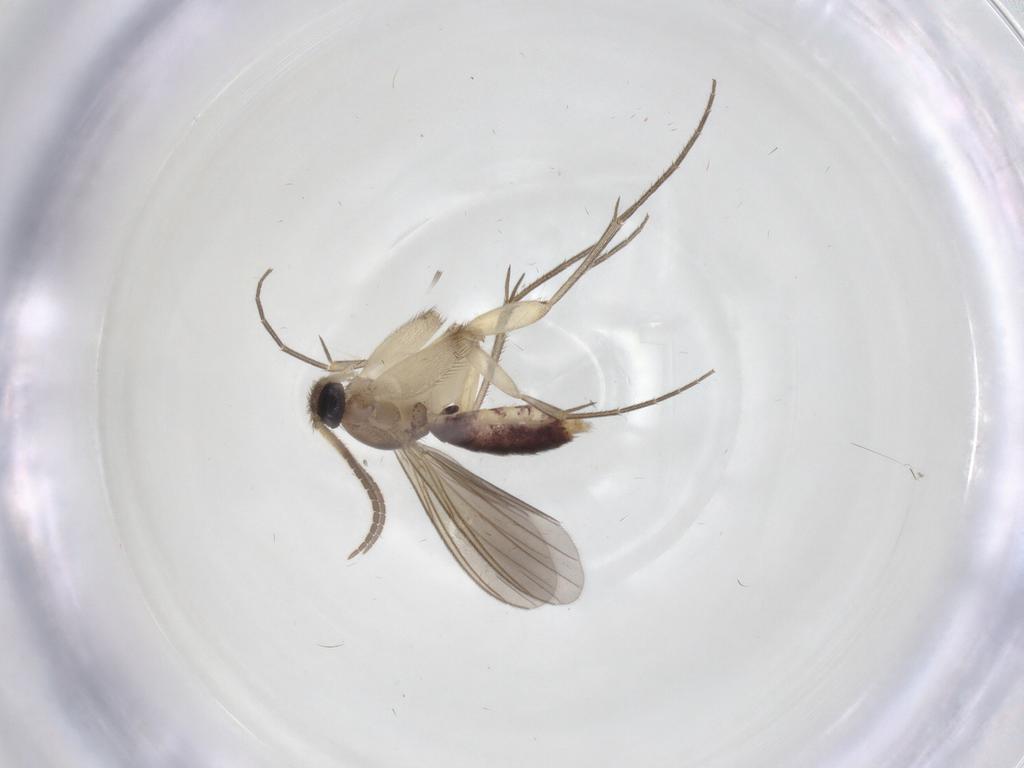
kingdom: Animalia
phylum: Arthropoda
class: Insecta
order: Diptera
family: Mycetophilidae
